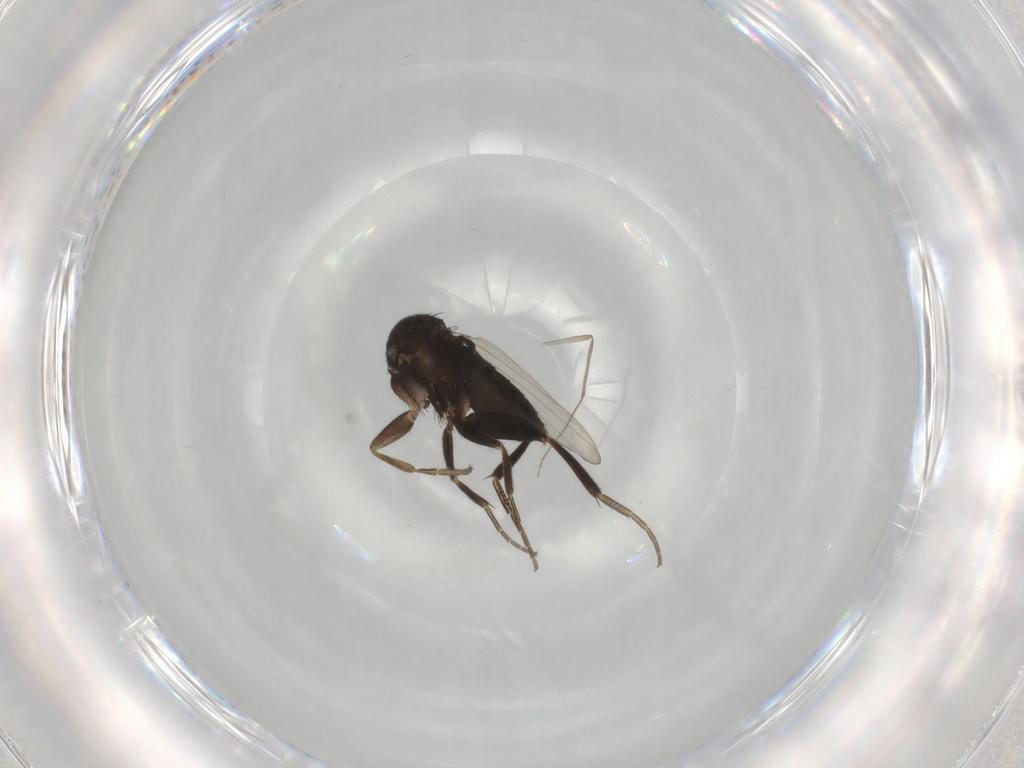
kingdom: Animalia
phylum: Arthropoda
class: Insecta
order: Diptera
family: Phoridae
